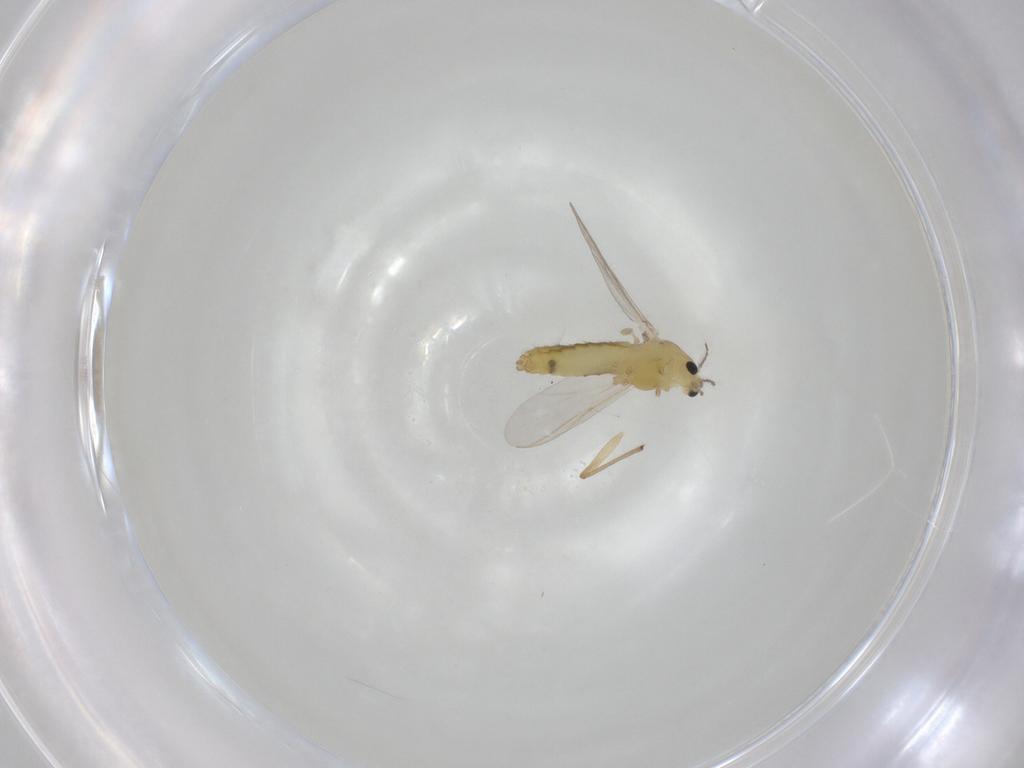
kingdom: Animalia
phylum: Arthropoda
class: Insecta
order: Diptera
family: Chironomidae
